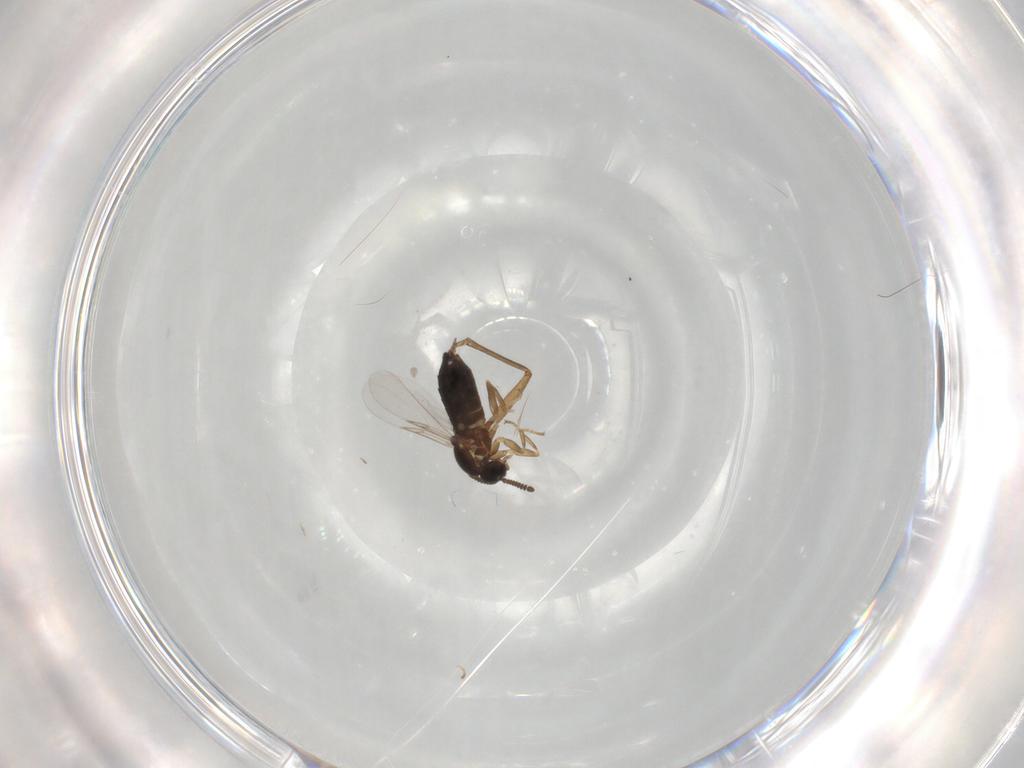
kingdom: Animalia
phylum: Arthropoda
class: Insecta
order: Diptera
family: Scatopsidae
